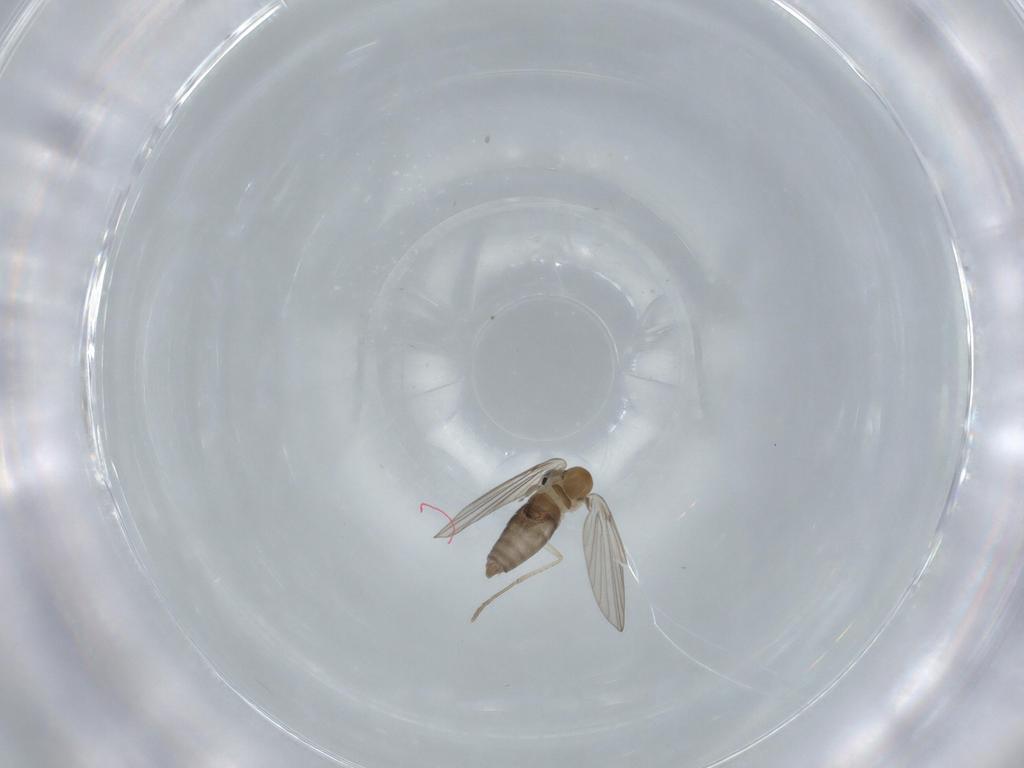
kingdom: Animalia
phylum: Arthropoda
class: Insecta
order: Diptera
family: Psychodidae
